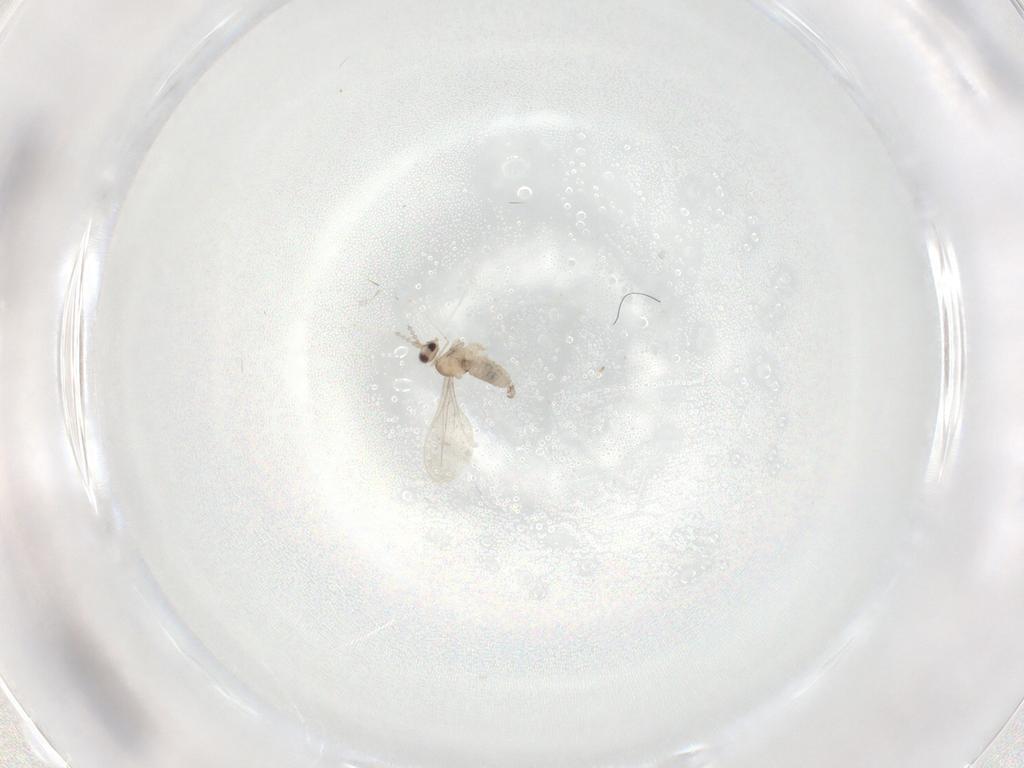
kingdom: Animalia
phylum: Arthropoda
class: Insecta
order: Diptera
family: Cecidomyiidae
